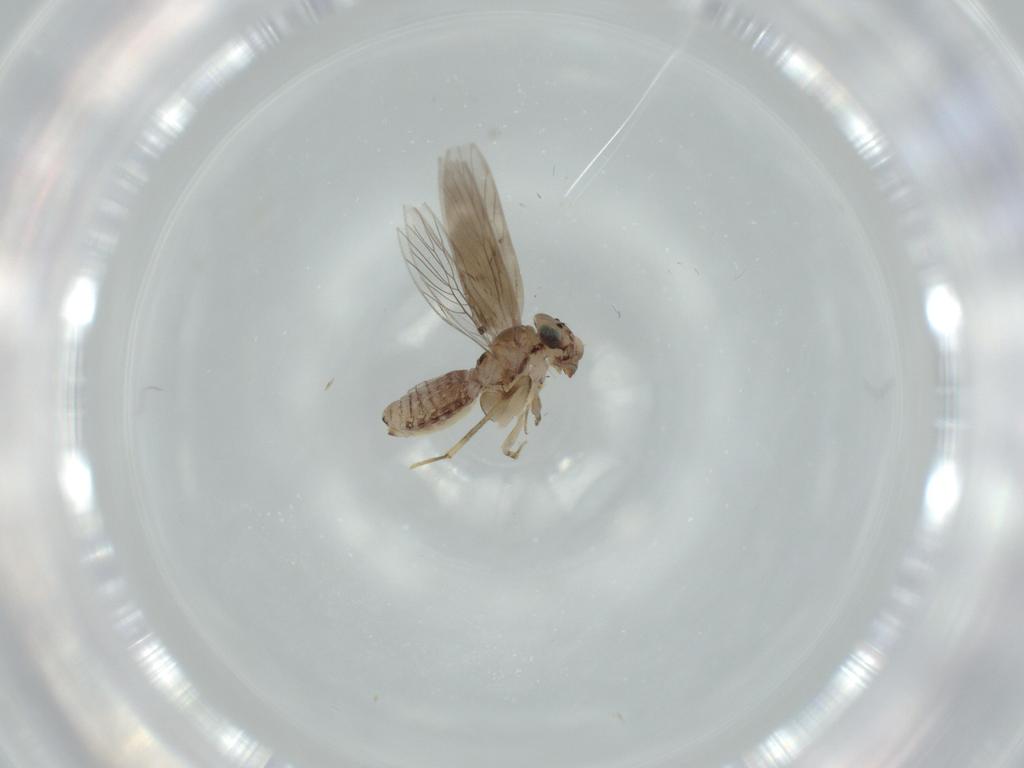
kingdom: Animalia
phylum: Arthropoda
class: Insecta
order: Psocodea
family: Lepidopsocidae
